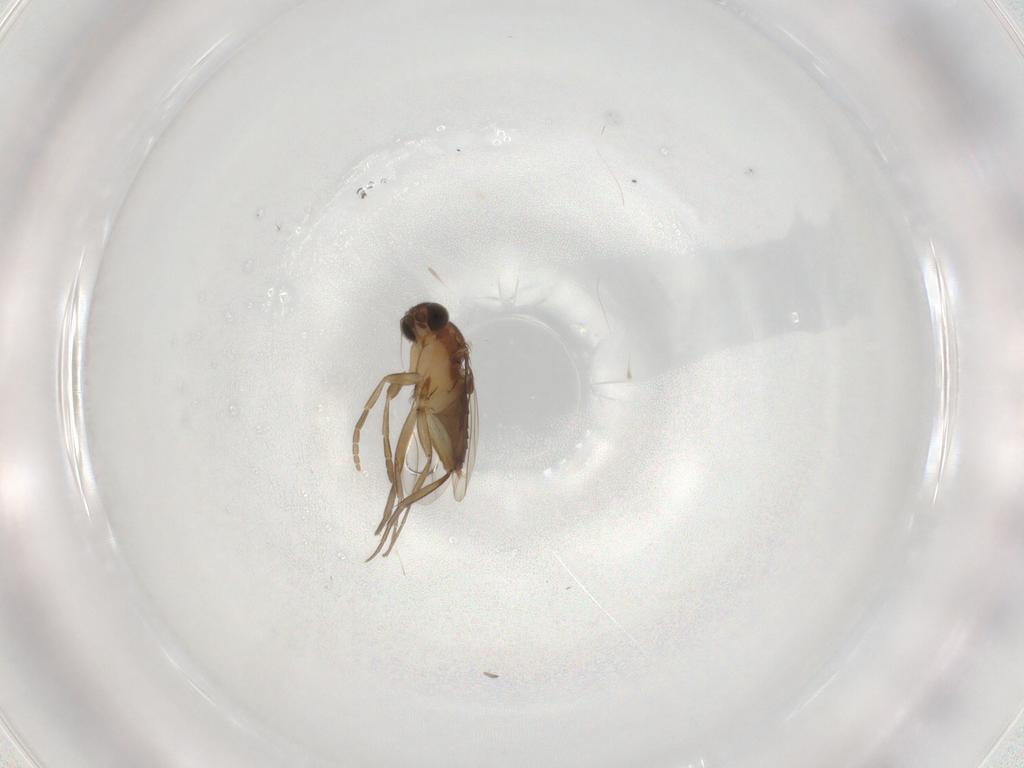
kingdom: Animalia
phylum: Arthropoda
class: Insecta
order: Diptera
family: Phoridae
